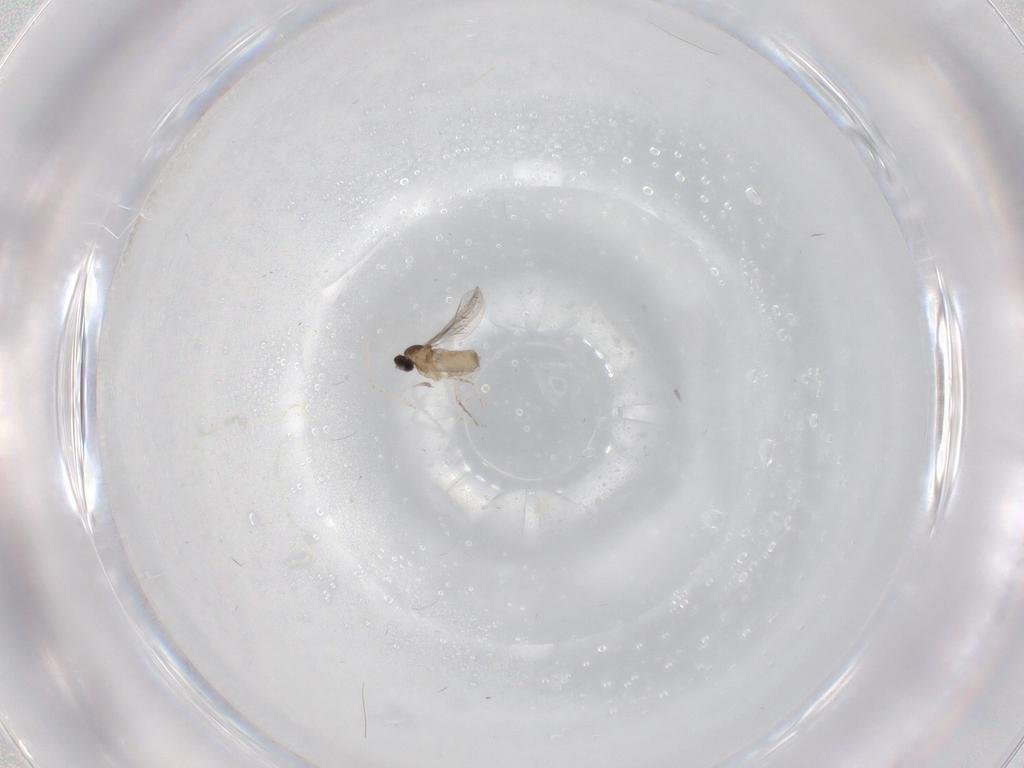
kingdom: Animalia
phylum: Arthropoda
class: Insecta
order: Diptera
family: Cecidomyiidae
